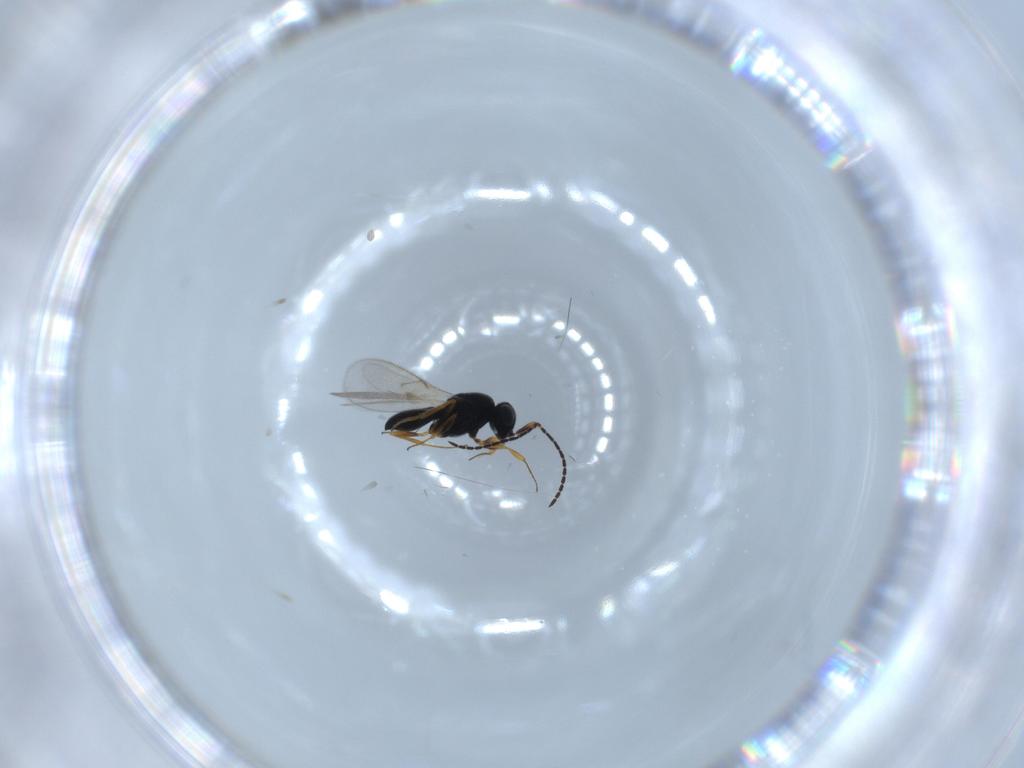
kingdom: Animalia
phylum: Arthropoda
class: Insecta
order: Hymenoptera
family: Scelionidae
